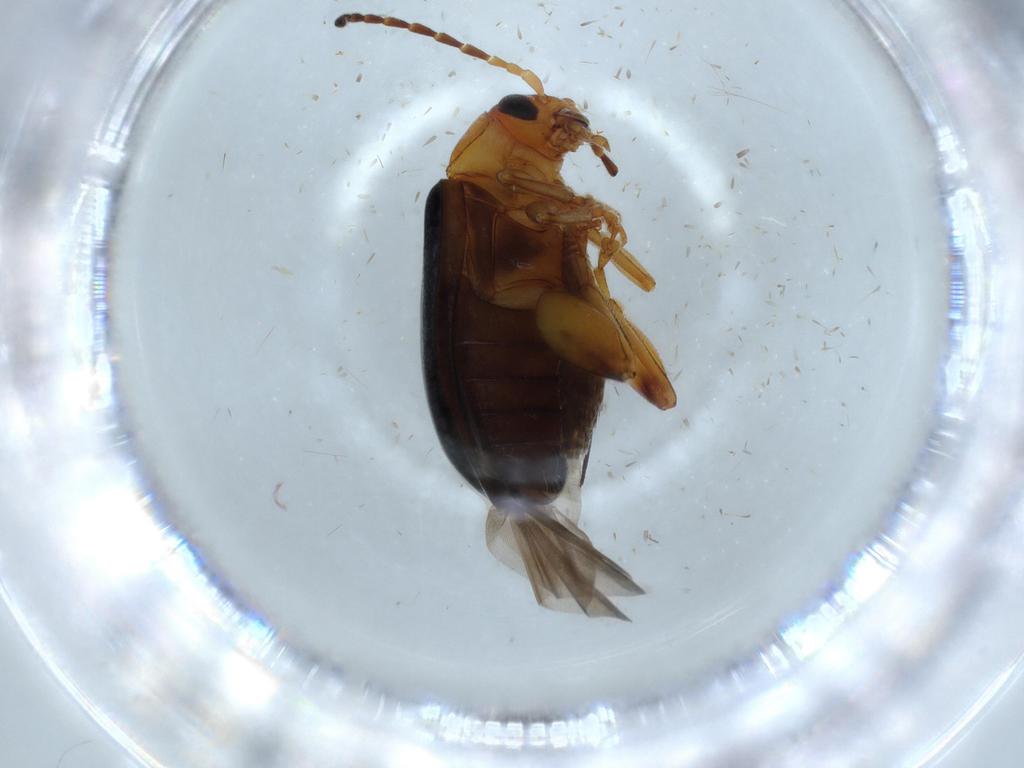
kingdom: Animalia
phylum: Arthropoda
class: Insecta
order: Coleoptera
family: Chrysomelidae
